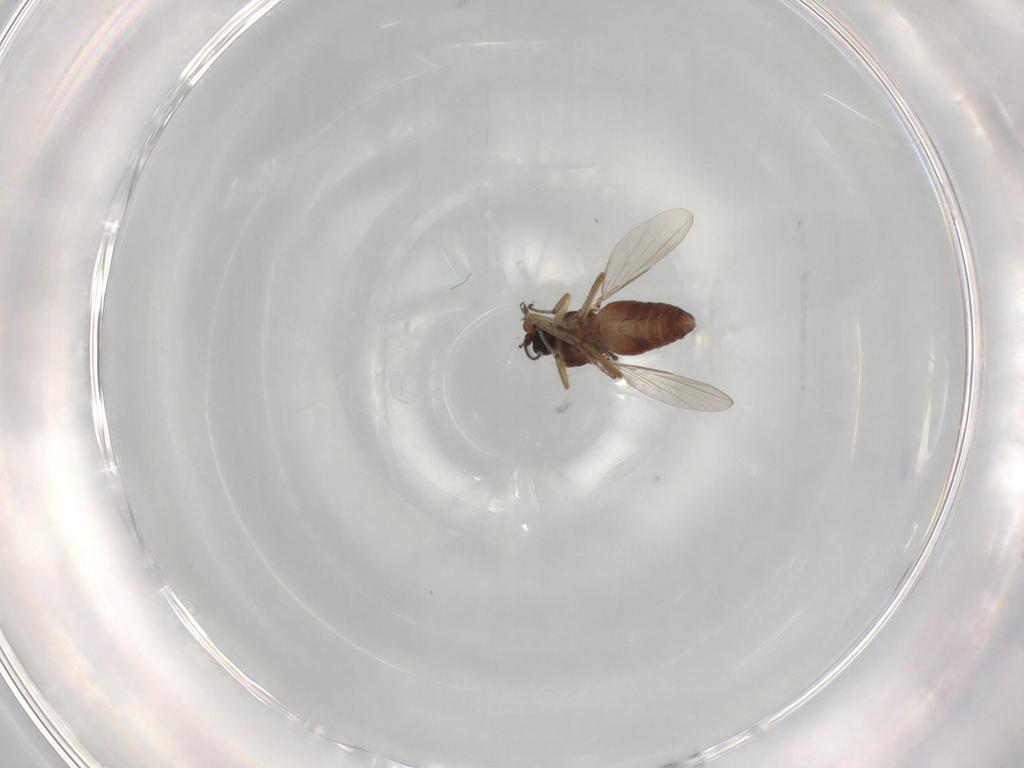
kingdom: Animalia
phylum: Arthropoda
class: Insecta
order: Diptera
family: Ceratopogonidae
